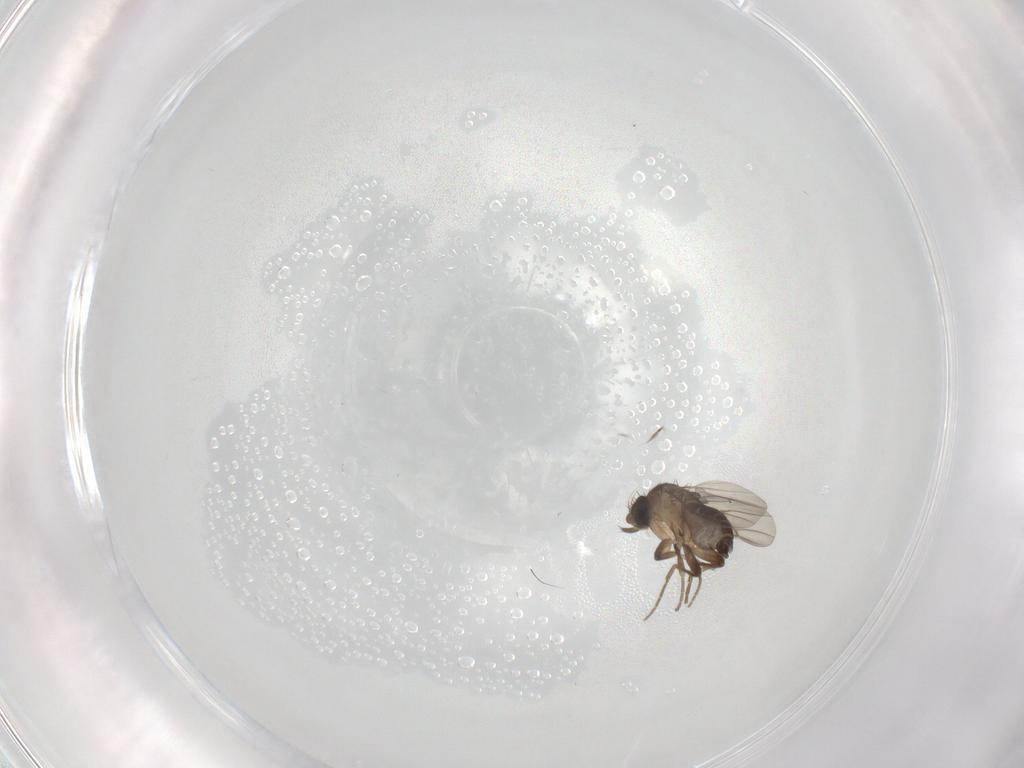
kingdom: Animalia
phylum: Arthropoda
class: Insecta
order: Diptera
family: Phoridae
